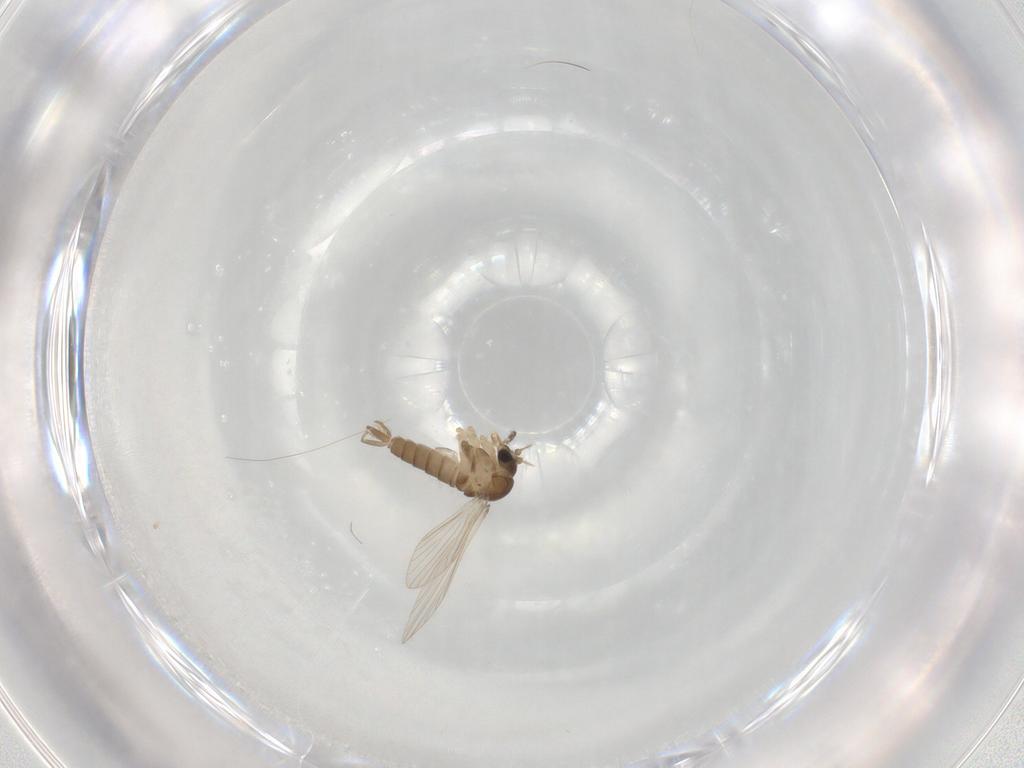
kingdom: Animalia
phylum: Arthropoda
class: Insecta
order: Diptera
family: Psychodidae
